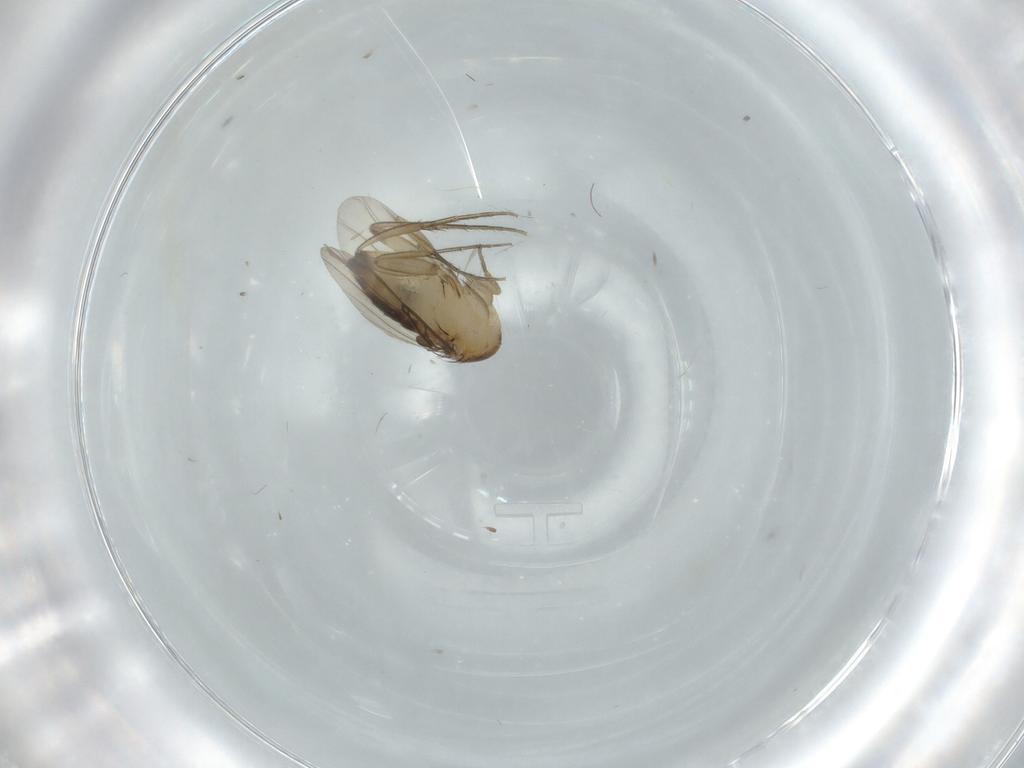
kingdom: Animalia
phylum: Arthropoda
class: Insecta
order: Diptera
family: Phoridae
